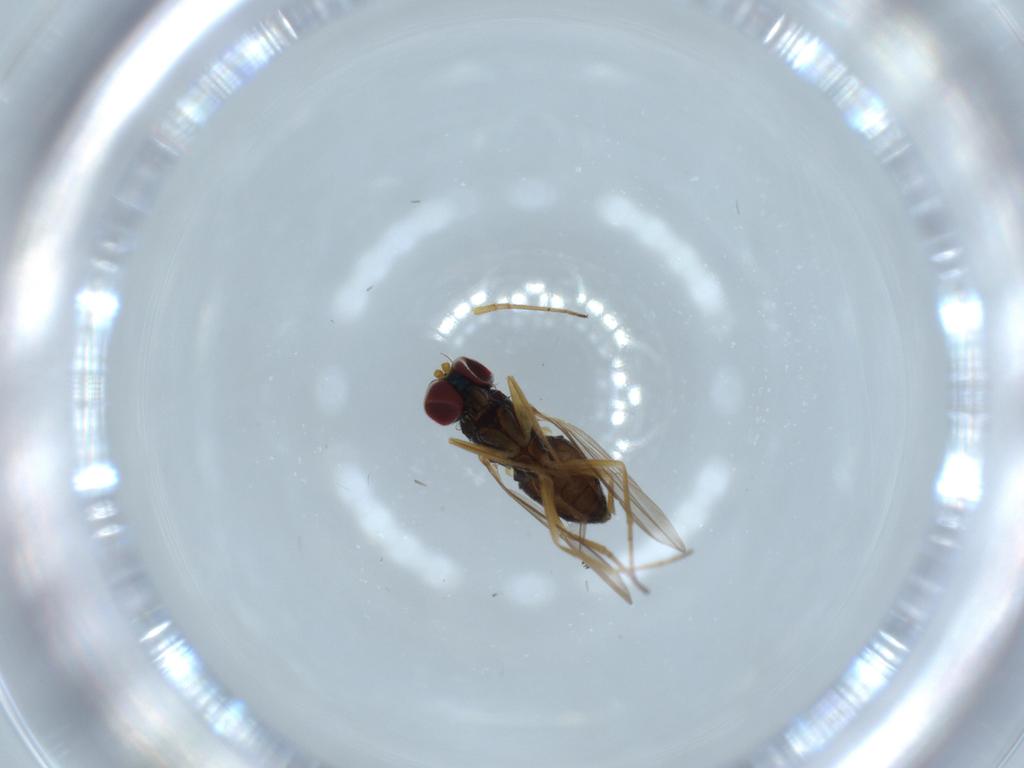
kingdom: Animalia
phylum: Arthropoda
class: Insecta
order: Diptera
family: Dolichopodidae
